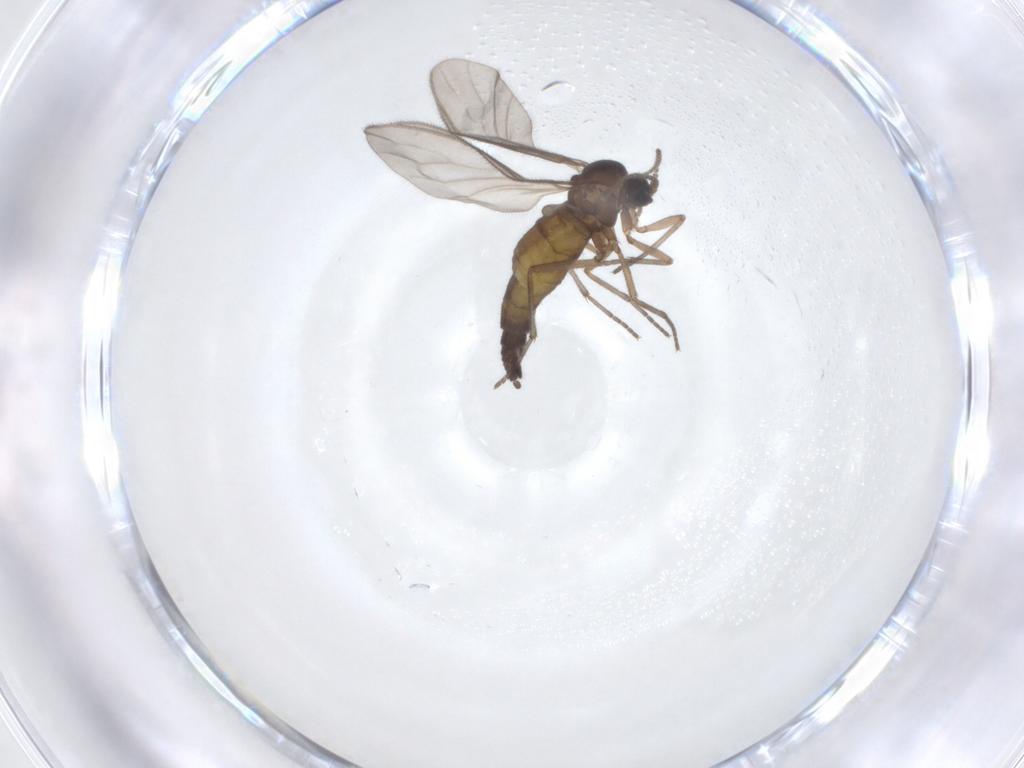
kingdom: Animalia
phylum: Arthropoda
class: Insecta
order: Diptera
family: Sciaridae
